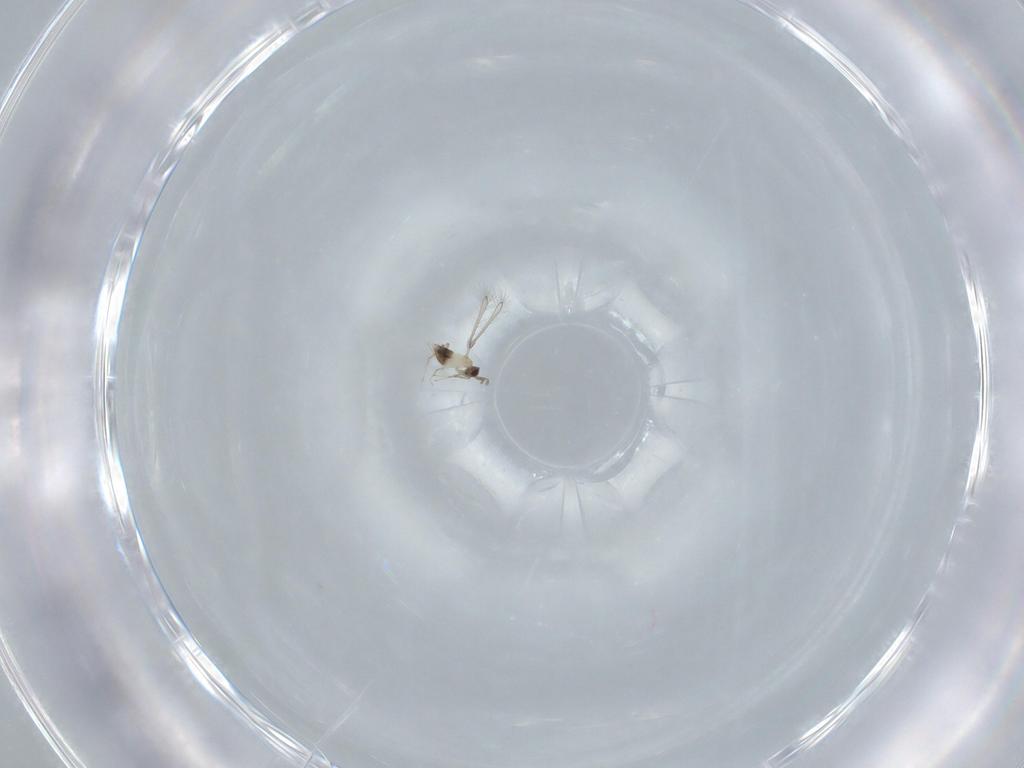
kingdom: Animalia
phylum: Arthropoda
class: Insecta
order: Hymenoptera
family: Mymaridae
